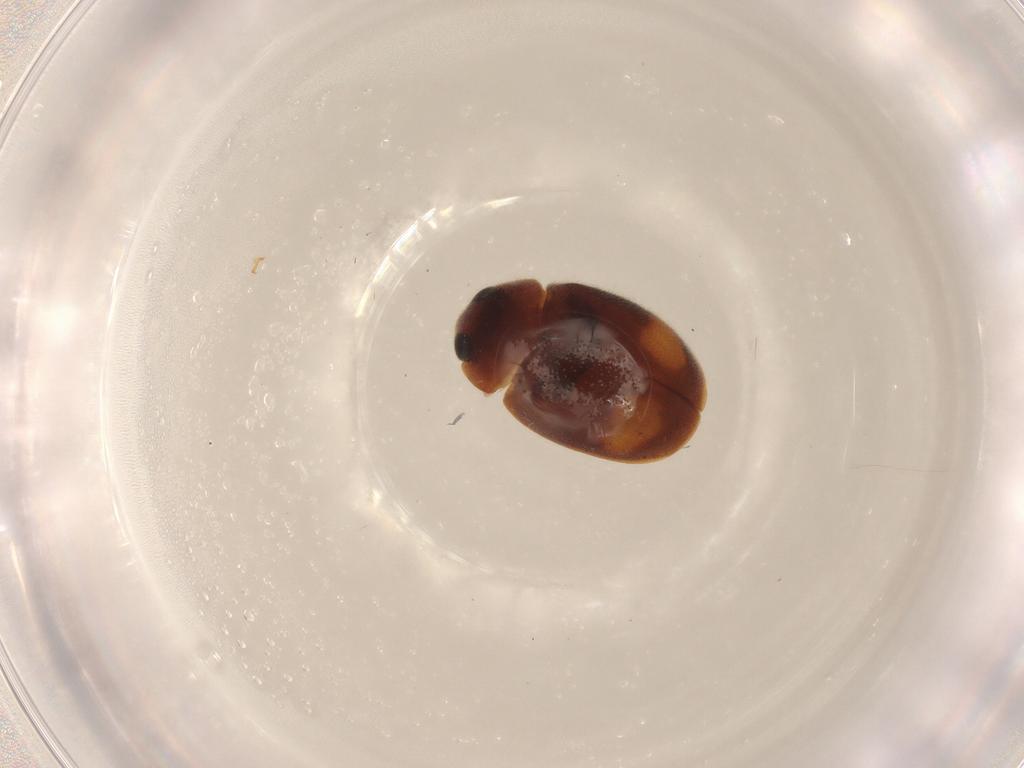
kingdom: Animalia
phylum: Arthropoda
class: Insecta
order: Coleoptera
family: Coccinellidae
